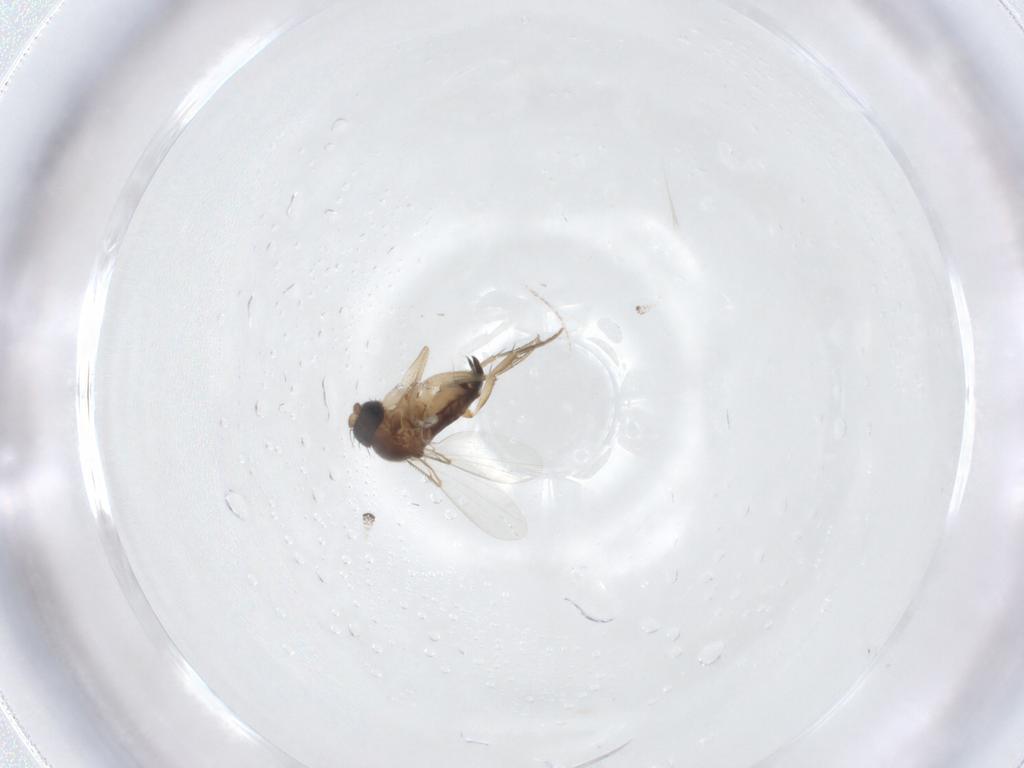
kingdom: Animalia
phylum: Arthropoda
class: Insecta
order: Diptera
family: Phoridae
